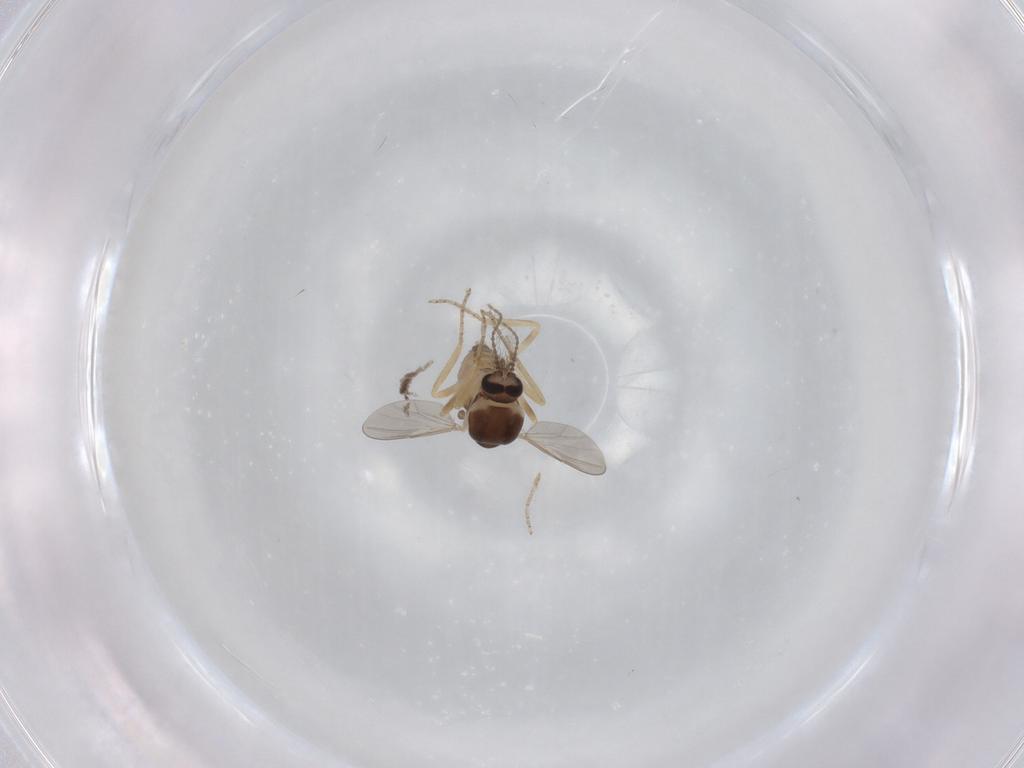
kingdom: Animalia
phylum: Arthropoda
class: Insecta
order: Diptera
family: Ceratopogonidae
